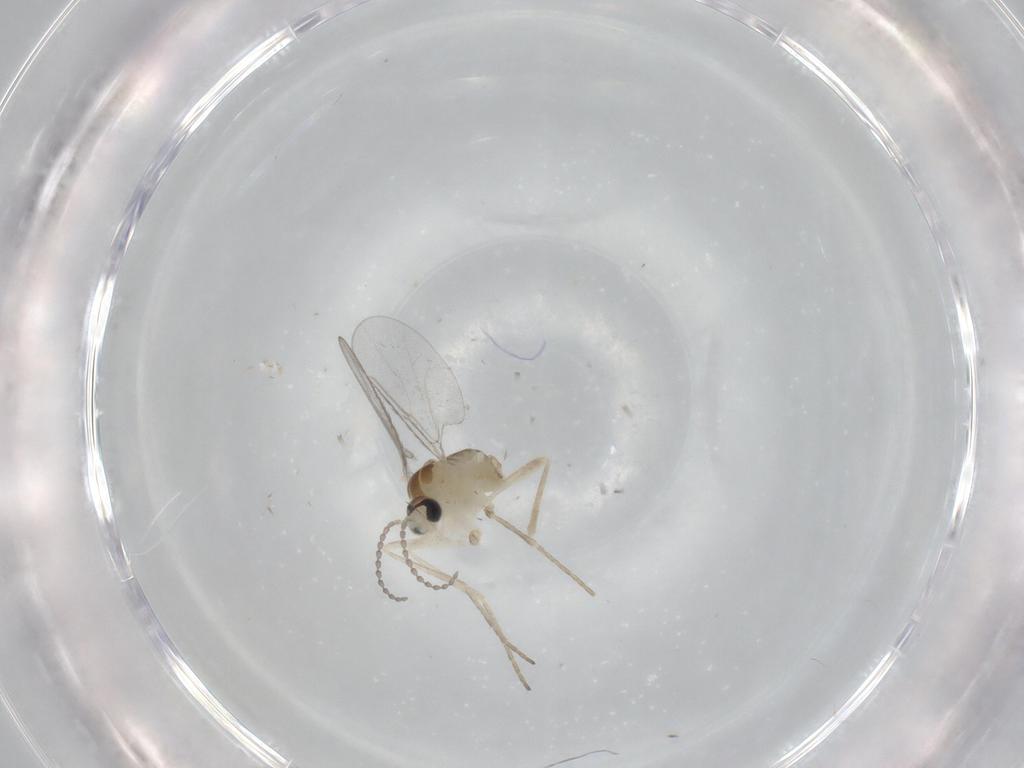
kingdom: Animalia
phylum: Arthropoda
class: Insecta
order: Diptera
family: Cecidomyiidae
